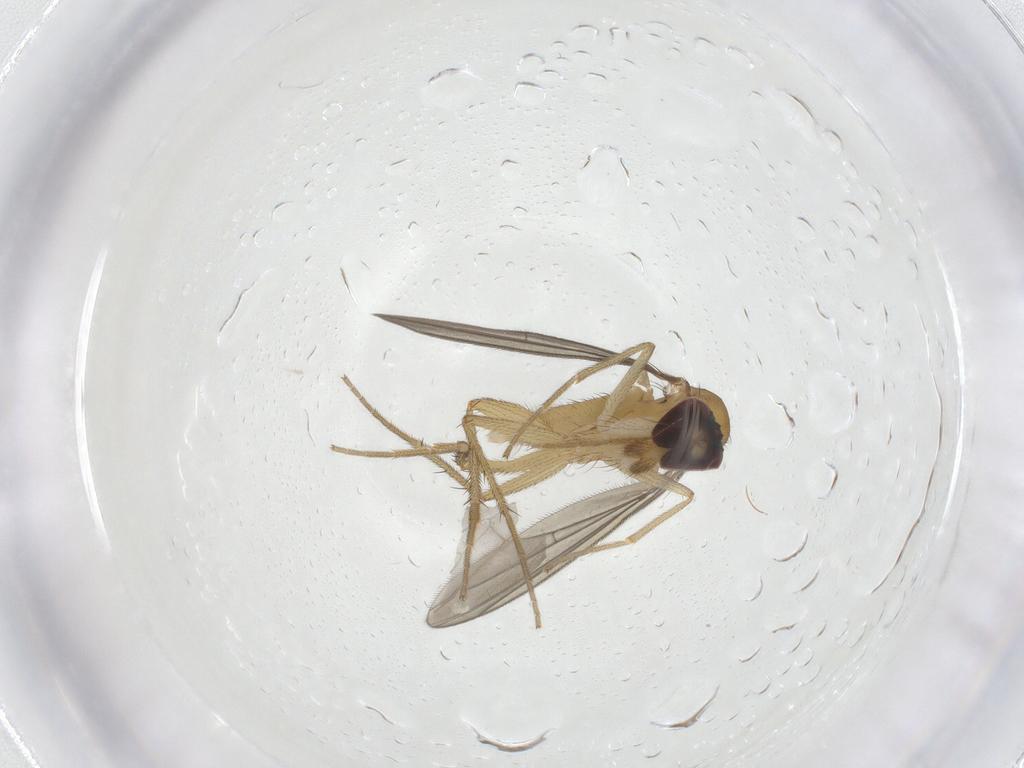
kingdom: Animalia
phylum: Arthropoda
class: Insecta
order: Diptera
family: Dolichopodidae
